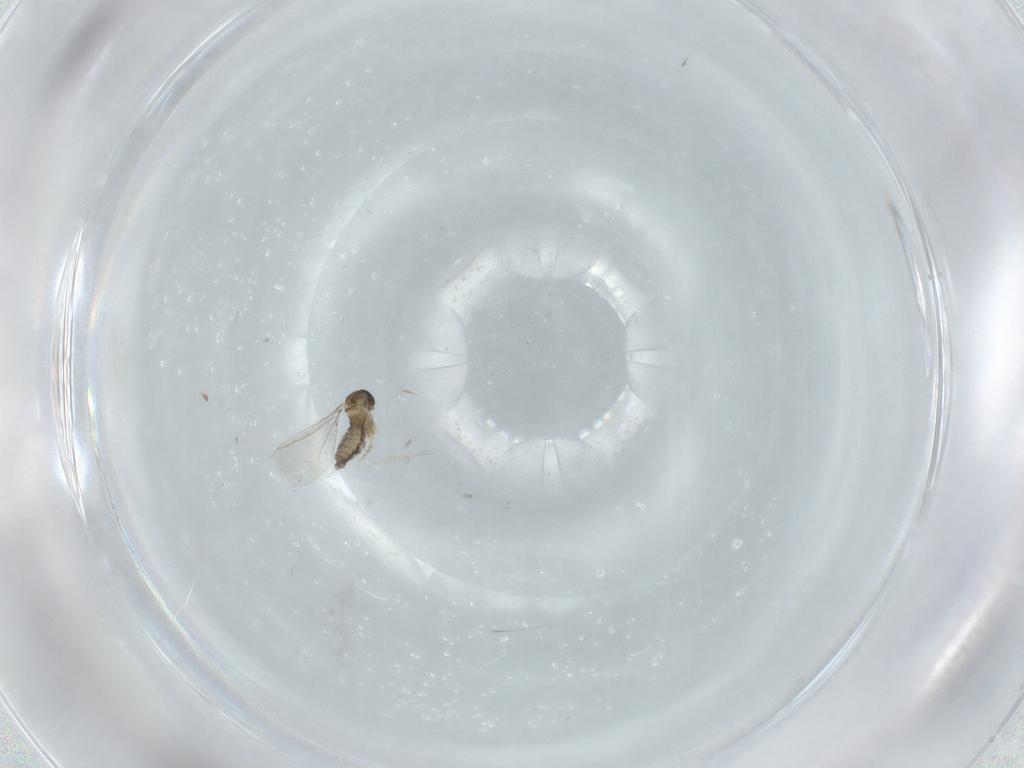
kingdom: Animalia
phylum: Arthropoda
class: Insecta
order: Diptera
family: Cecidomyiidae
